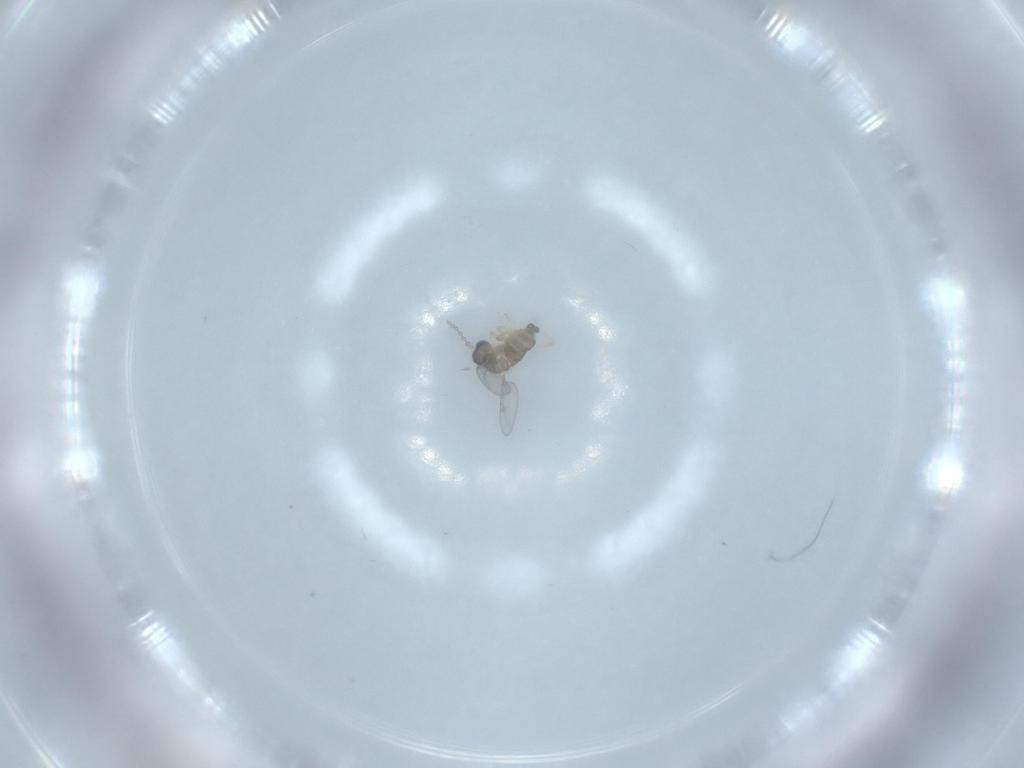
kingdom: Animalia
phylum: Arthropoda
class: Insecta
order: Diptera
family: Cecidomyiidae
